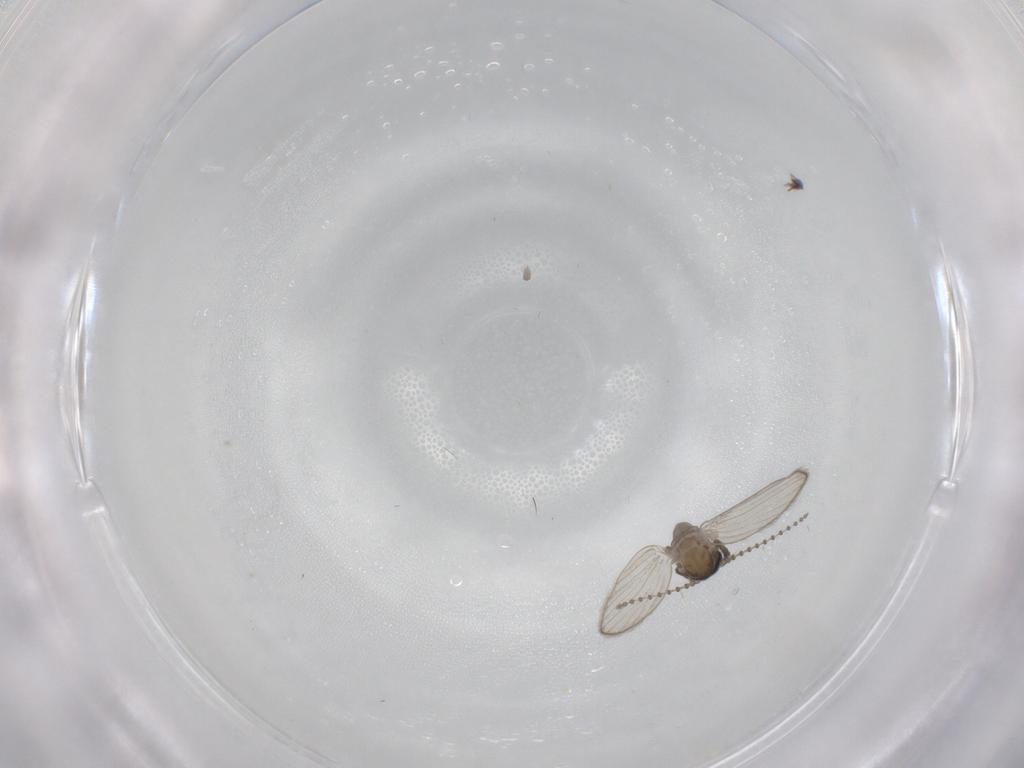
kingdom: Animalia
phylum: Arthropoda
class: Insecta
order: Diptera
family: Psychodidae
